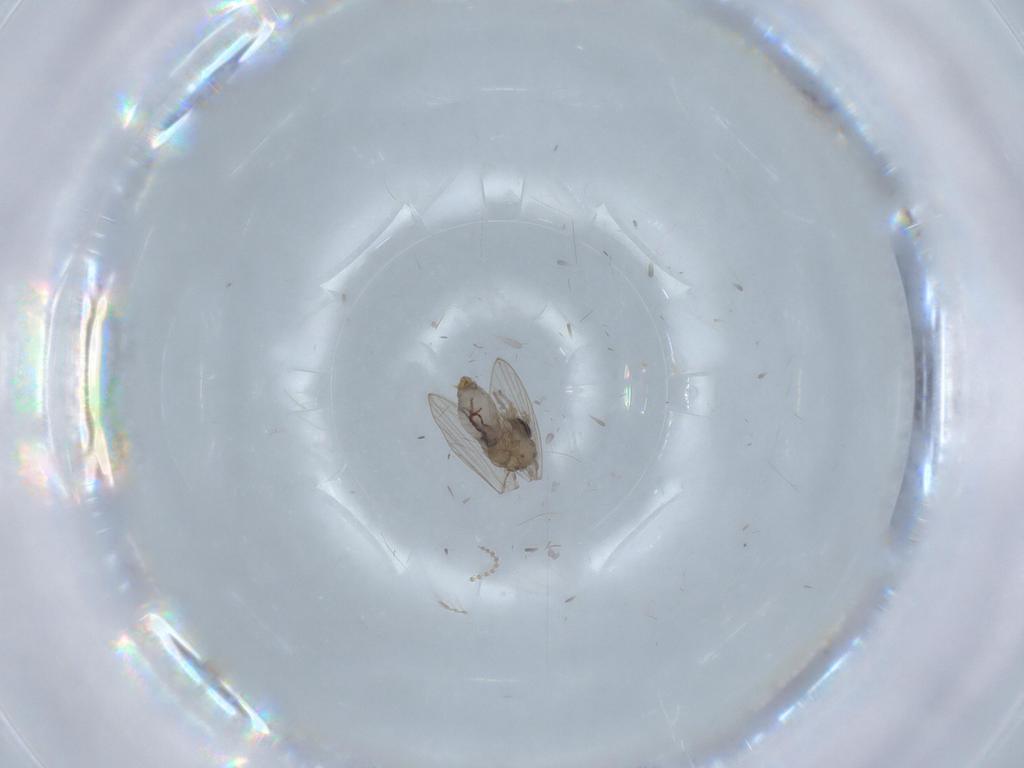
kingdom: Animalia
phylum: Arthropoda
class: Insecta
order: Diptera
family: Psychodidae
